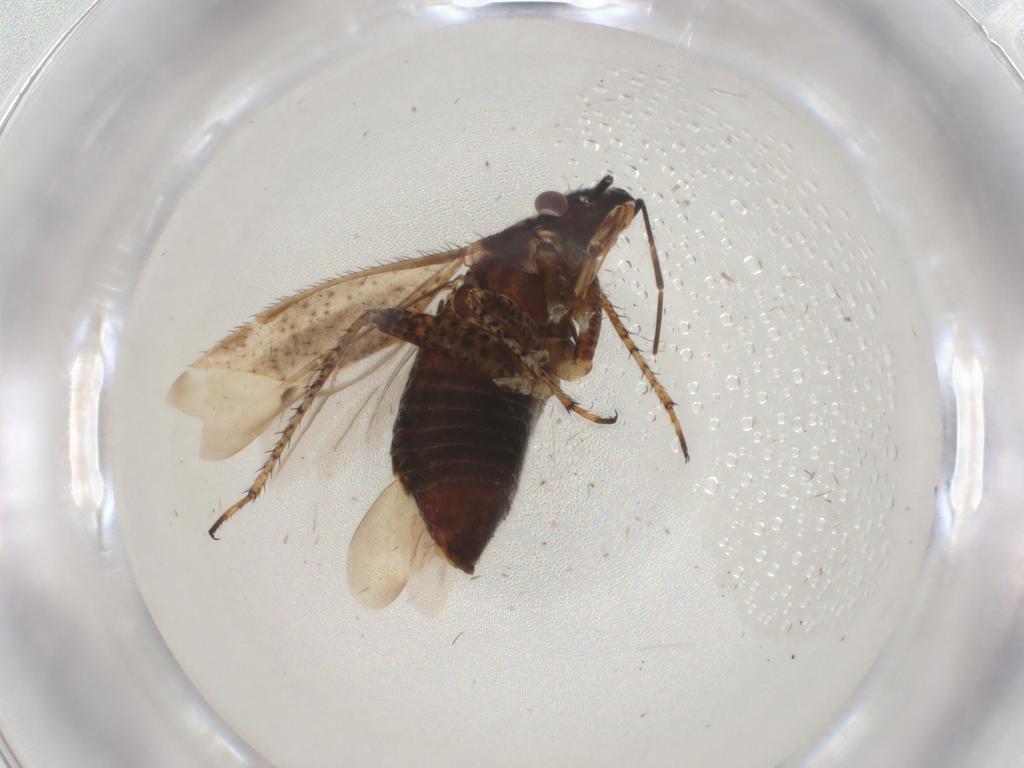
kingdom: Animalia
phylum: Arthropoda
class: Insecta
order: Hemiptera
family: Miridae
